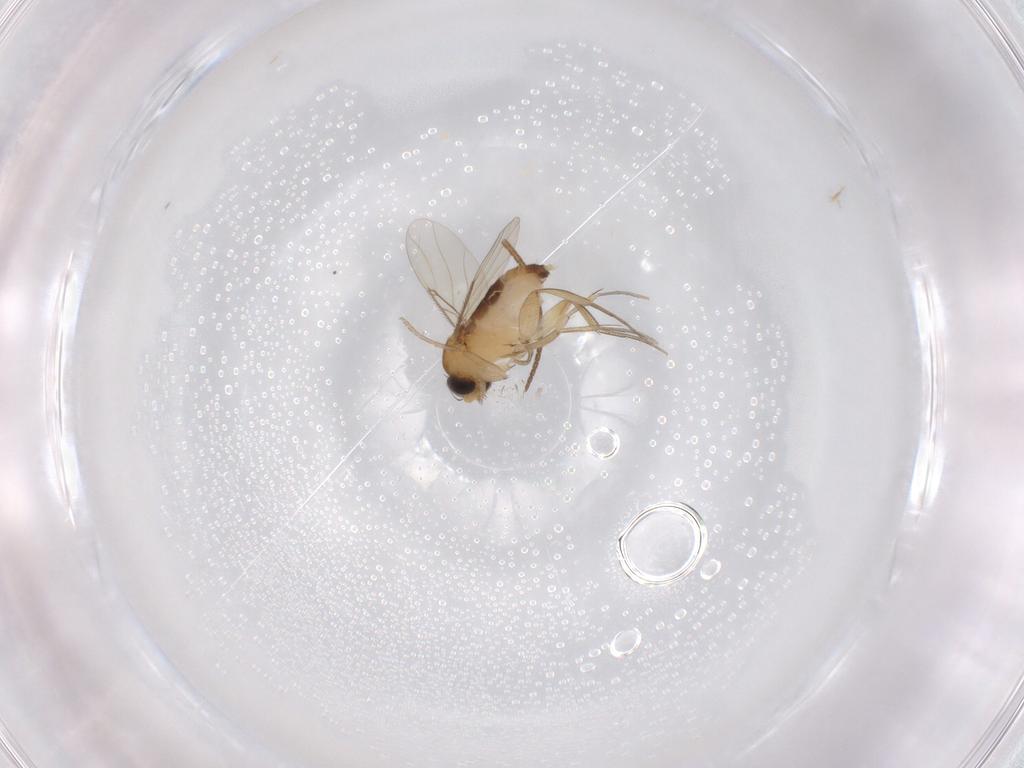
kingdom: Animalia
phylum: Arthropoda
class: Insecta
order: Diptera
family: Phoridae
